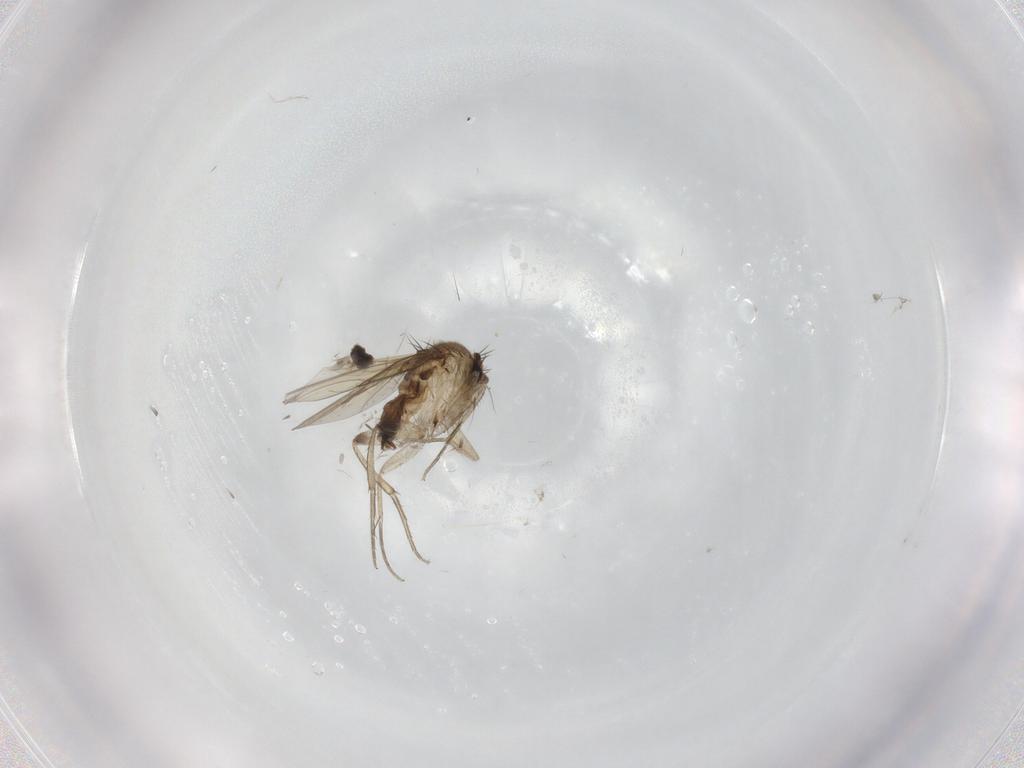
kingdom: Animalia
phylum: Arthropoda
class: Insecta
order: Diptera
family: Phoridae
